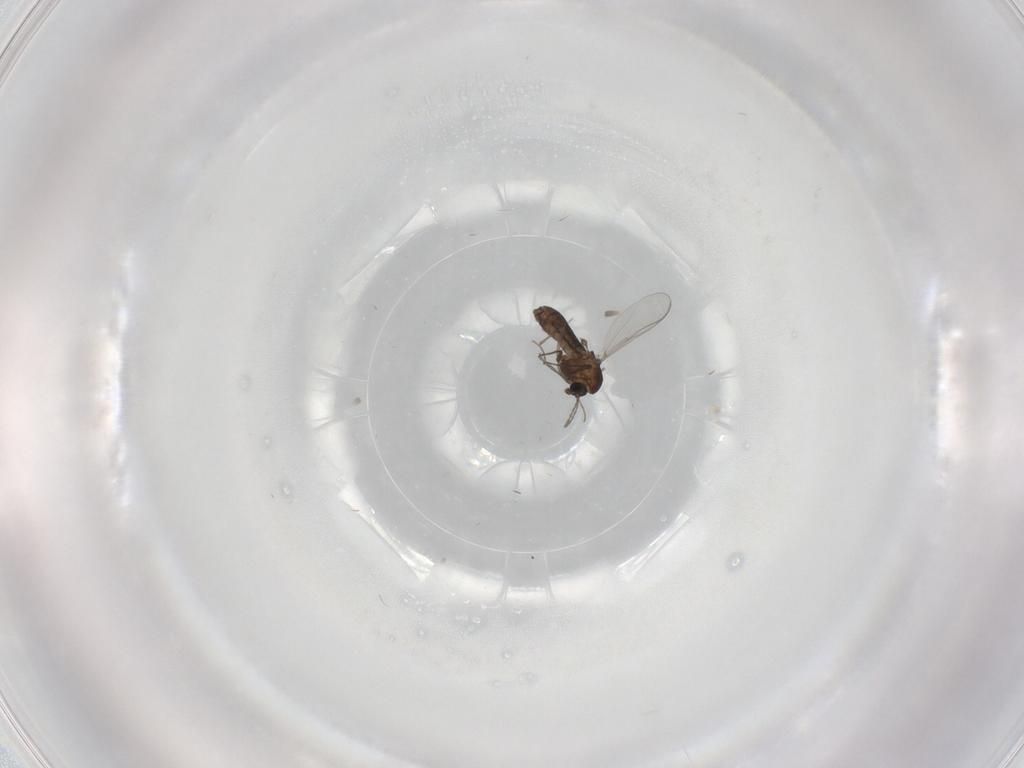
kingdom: Animalia
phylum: Arthropoda
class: Insecta
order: Diptera
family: Chironomidae
